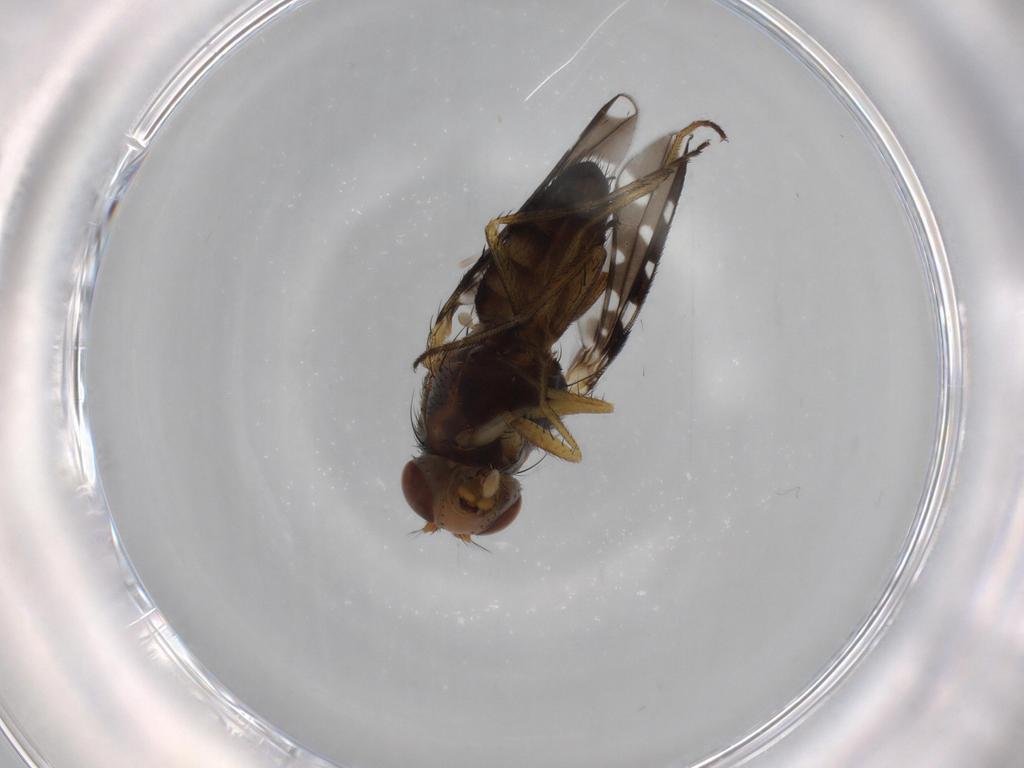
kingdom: Animalia
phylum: Arthropoda
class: Insecta
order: Diptera
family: Ephydridae
